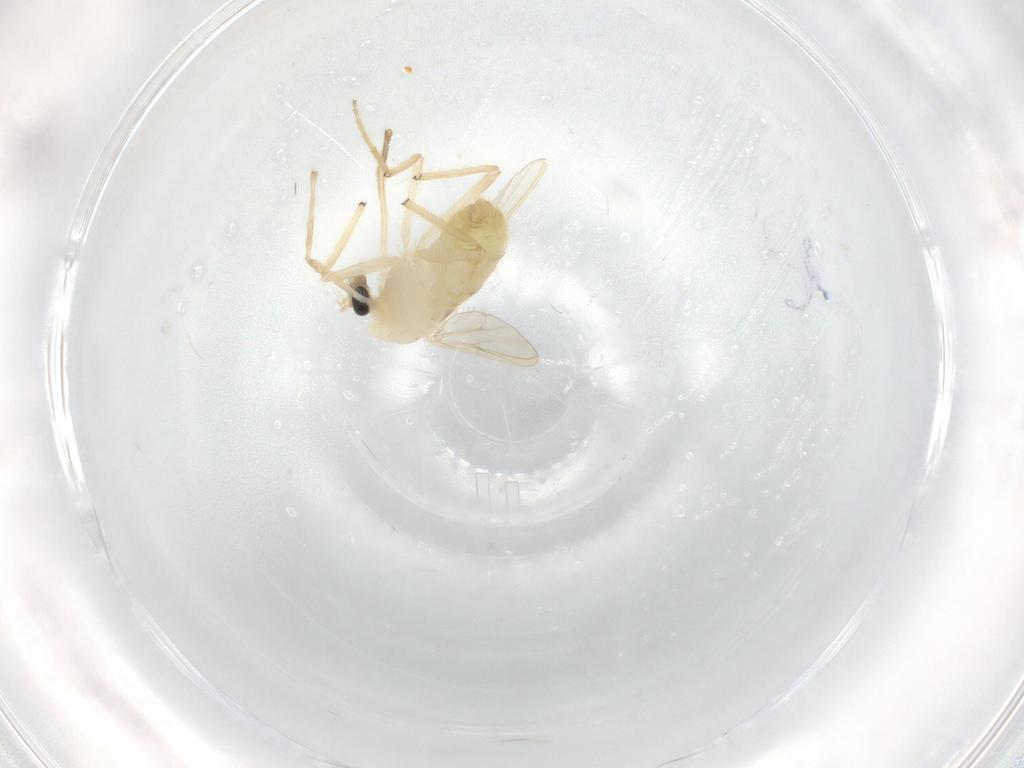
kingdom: Animalia
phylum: Arthropoda
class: Insecta
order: Diptera
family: Chironomidae
